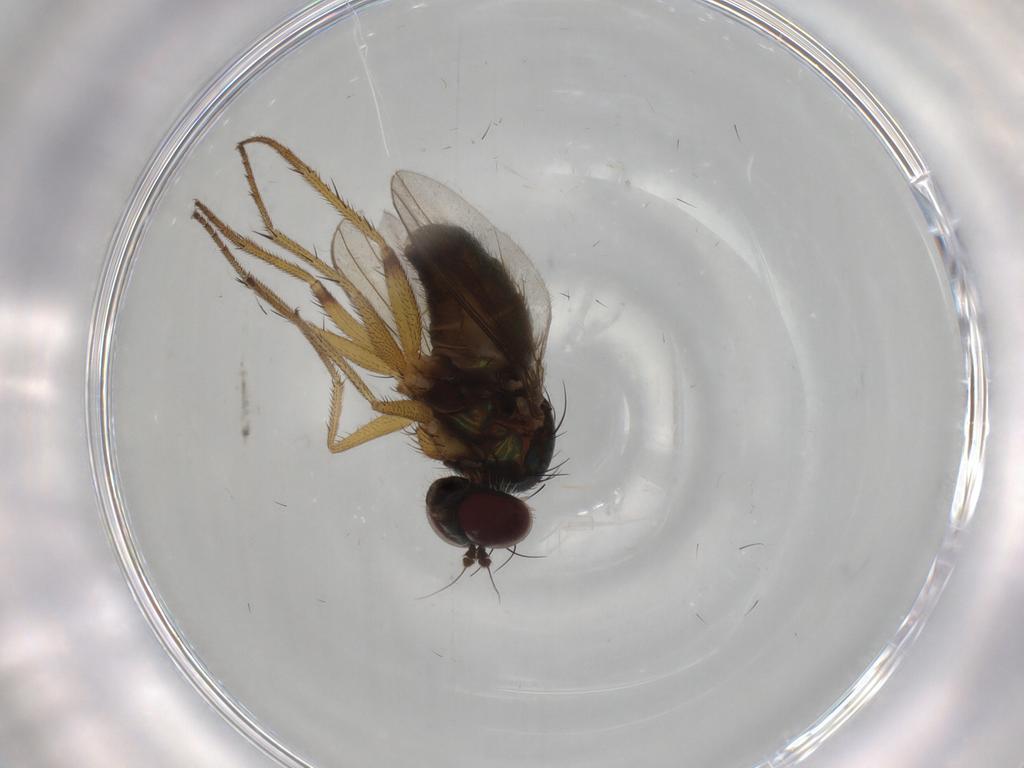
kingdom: Animalia
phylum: Arthropoda
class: Insecta
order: Diptera
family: Dolichopodidae
